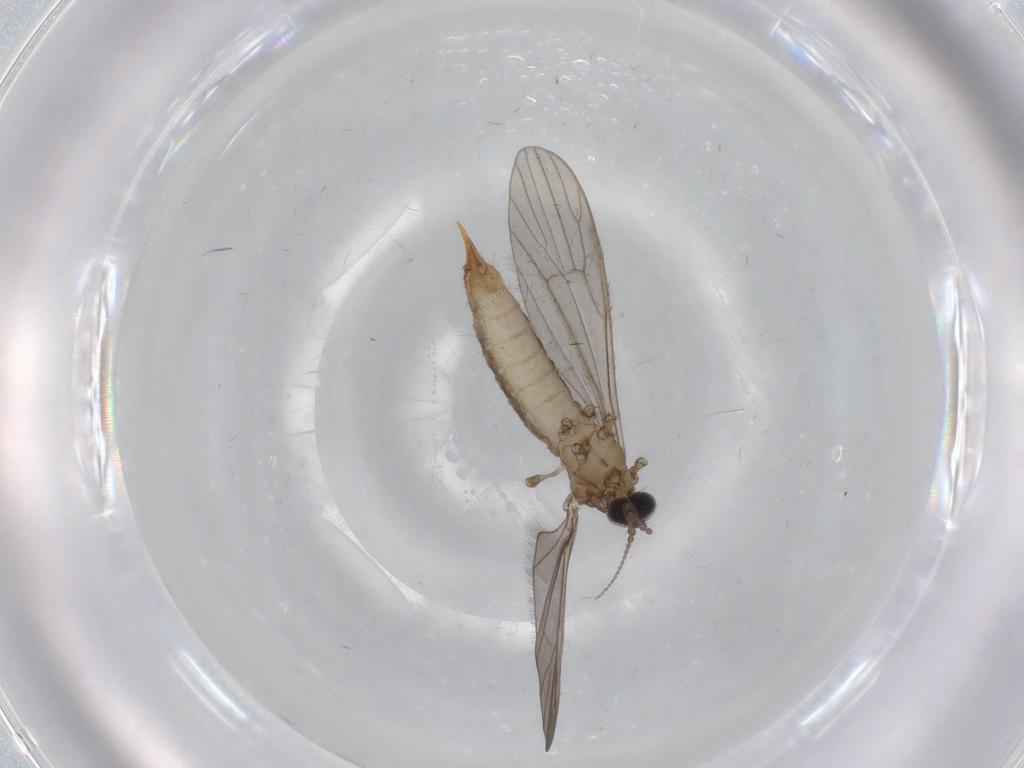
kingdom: Animalia
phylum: Arthropoda
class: Insecta
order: Diptera
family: Limoniidae
